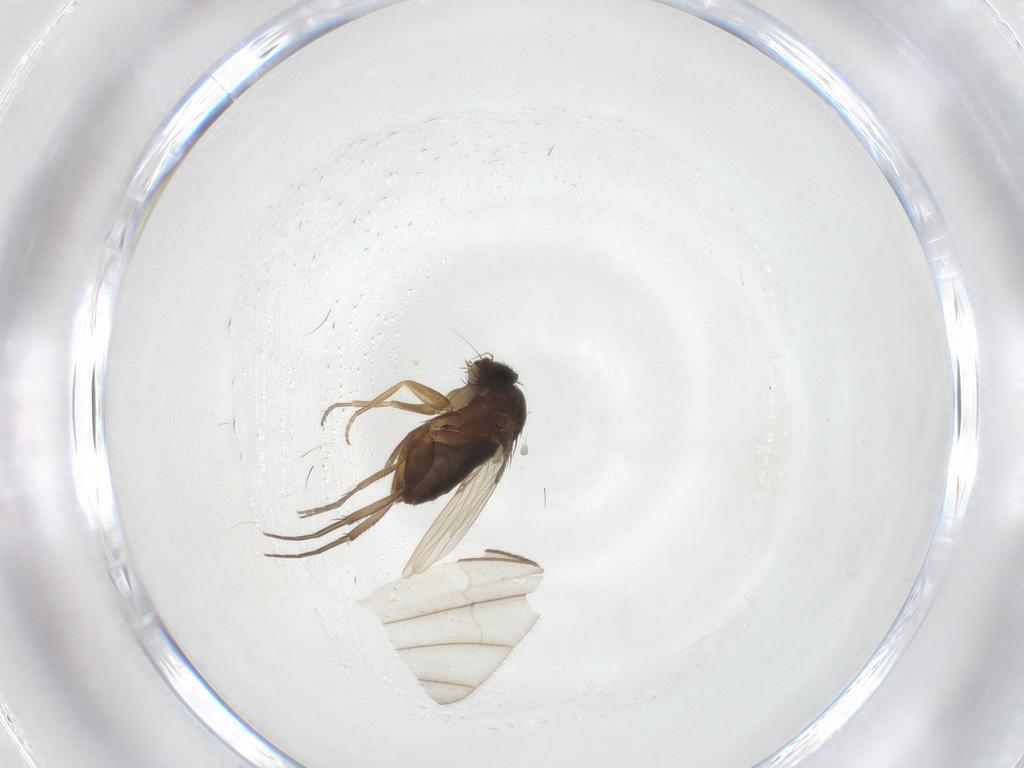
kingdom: Animalia
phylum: Arthropoda
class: Insecta
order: Diptera
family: Phoridae
